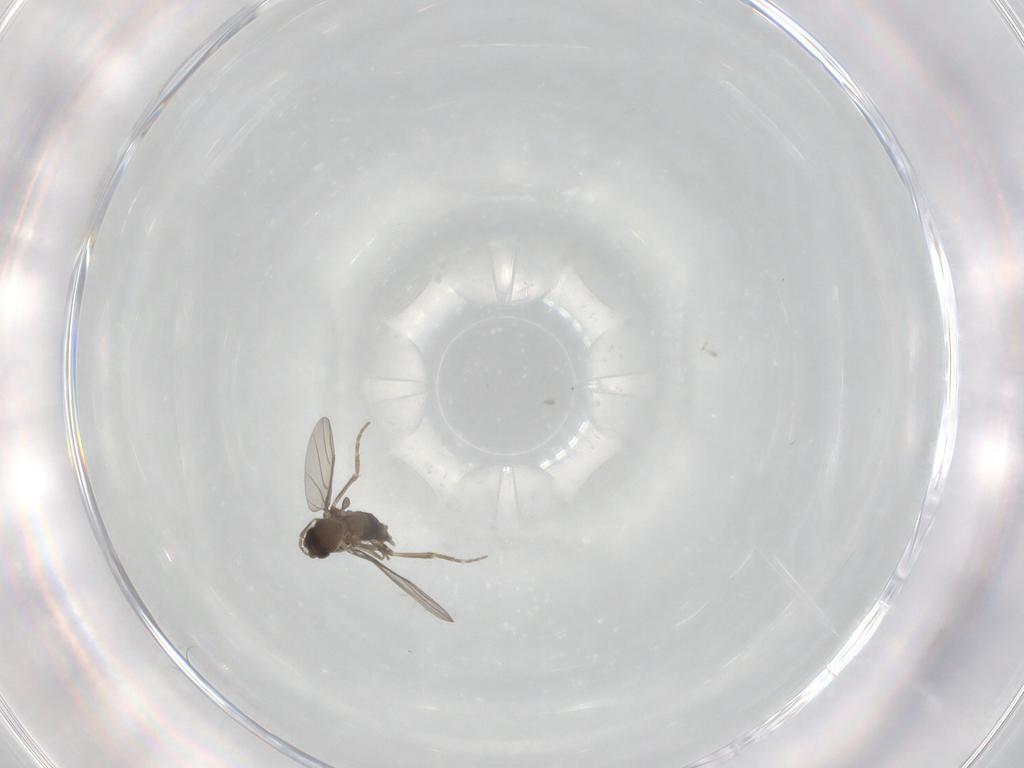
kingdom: Animalia
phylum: Arthropoda
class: Insecta
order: Diptera
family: Phoridae
